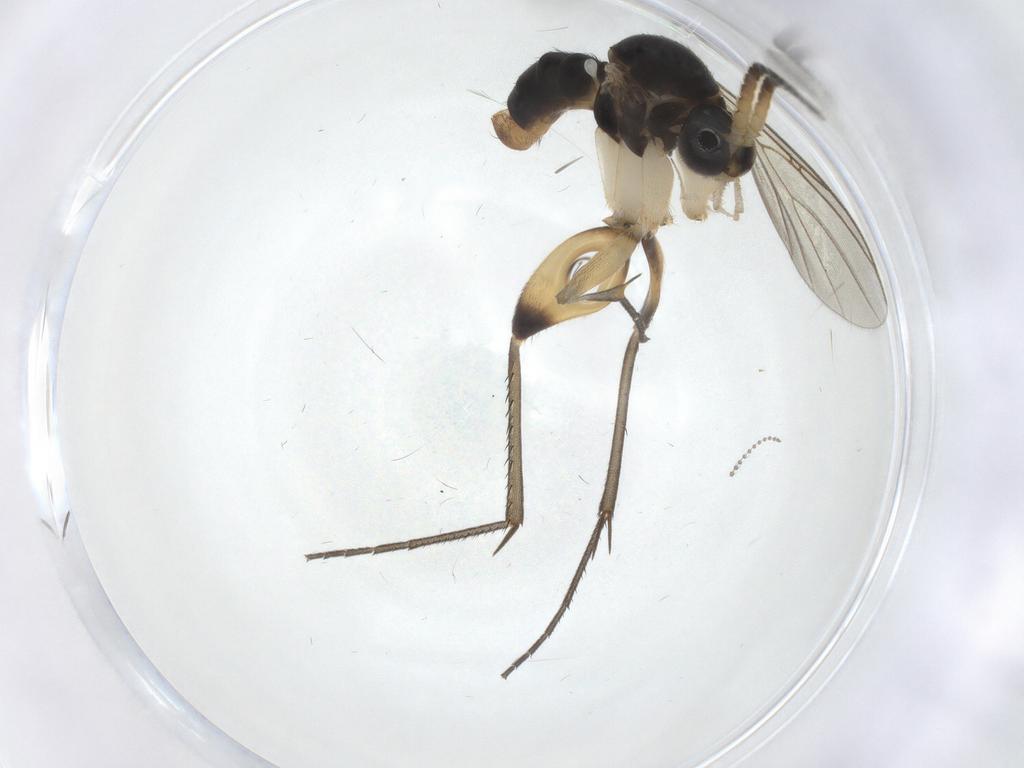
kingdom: Animalia
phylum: Arthropoda
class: Insecta
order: Diptera
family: Mycetophilidae
